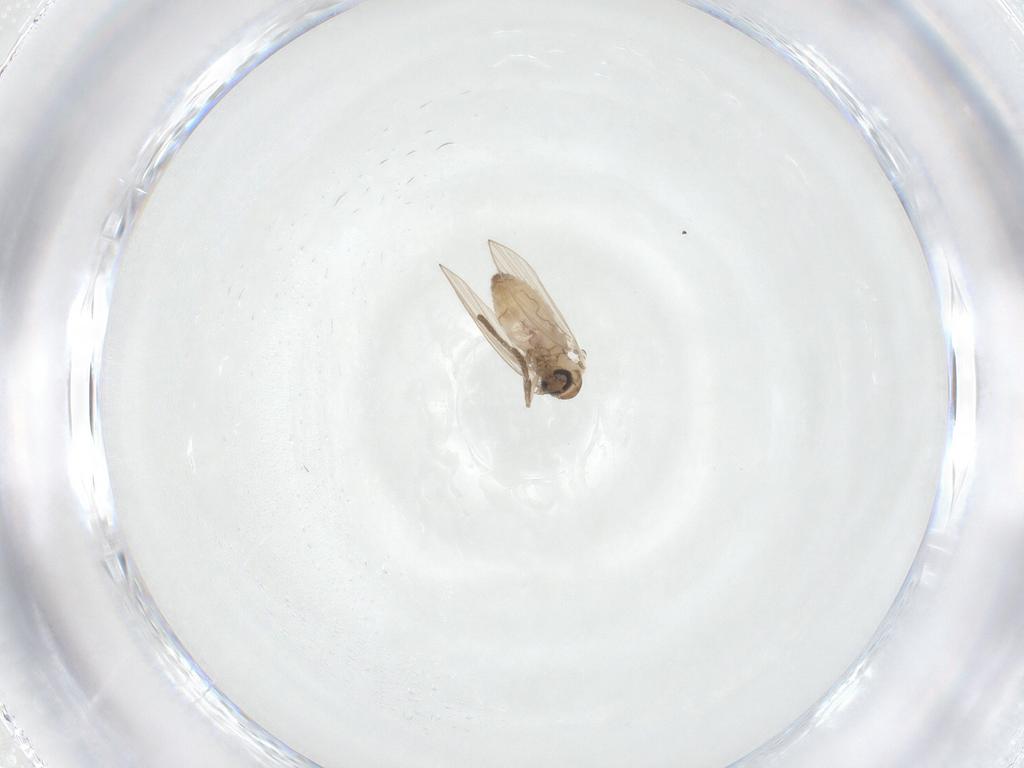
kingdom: Animalia
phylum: Arthropoda
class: Insecta
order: Diptera
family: Psychodidae
